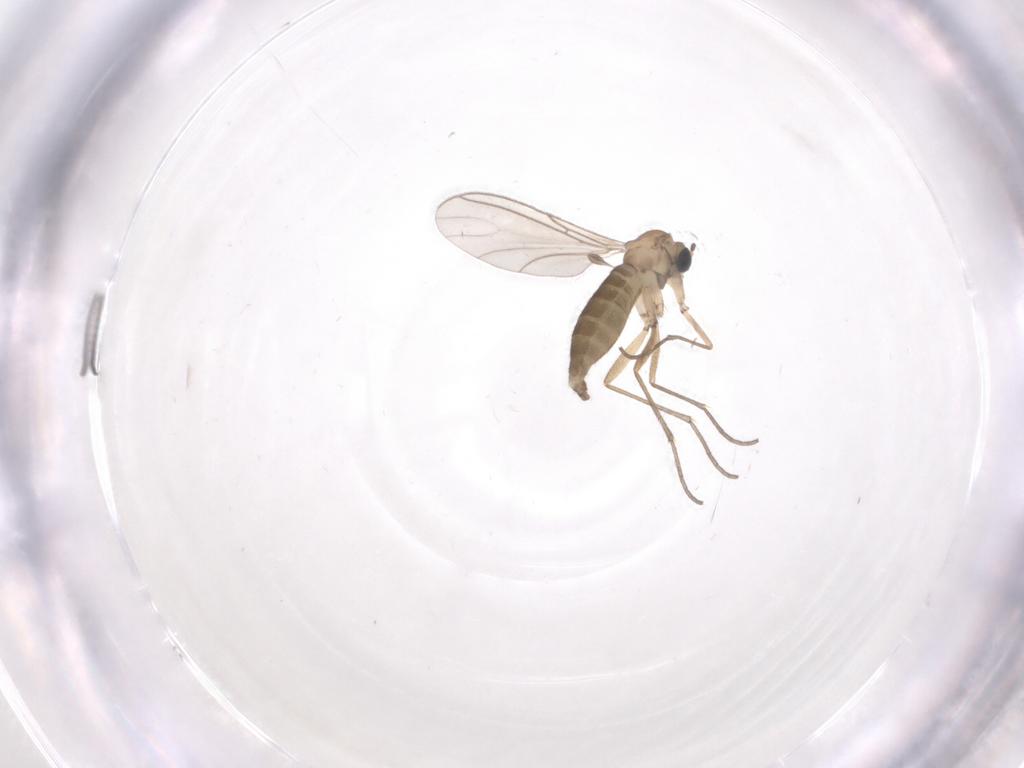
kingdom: Animalia
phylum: Arthropoda
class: Insecta
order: Diptera
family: Sciaridae
